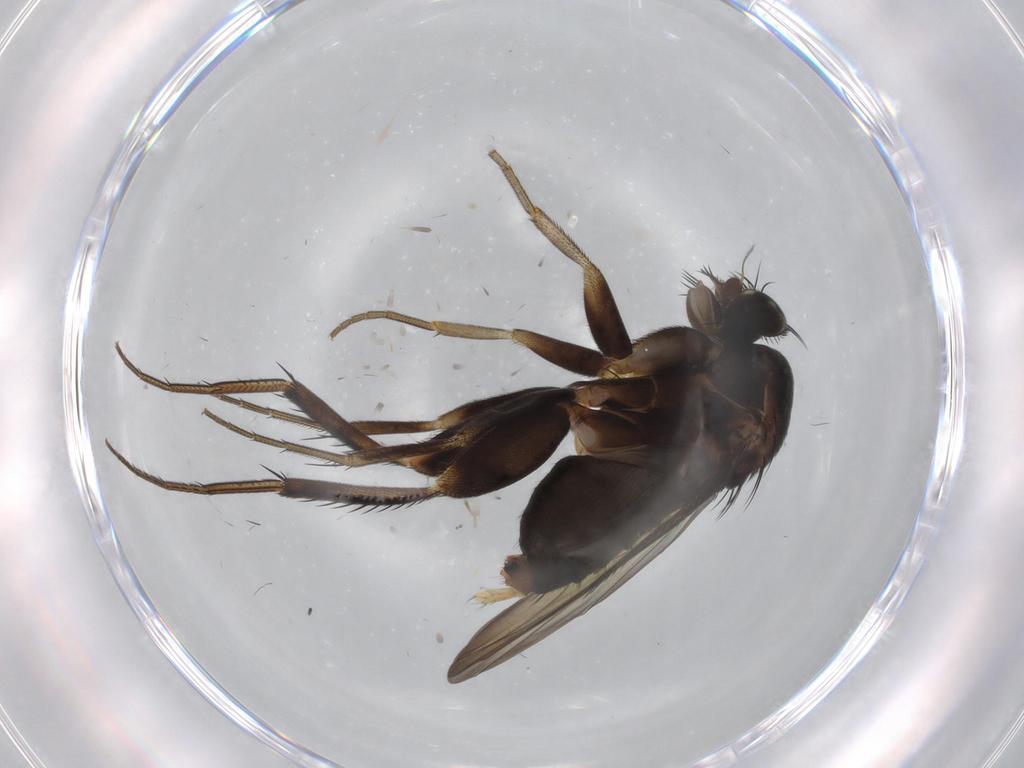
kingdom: Animalia
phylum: Arthropoda
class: Insecta
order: Diptera
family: Phoridae
